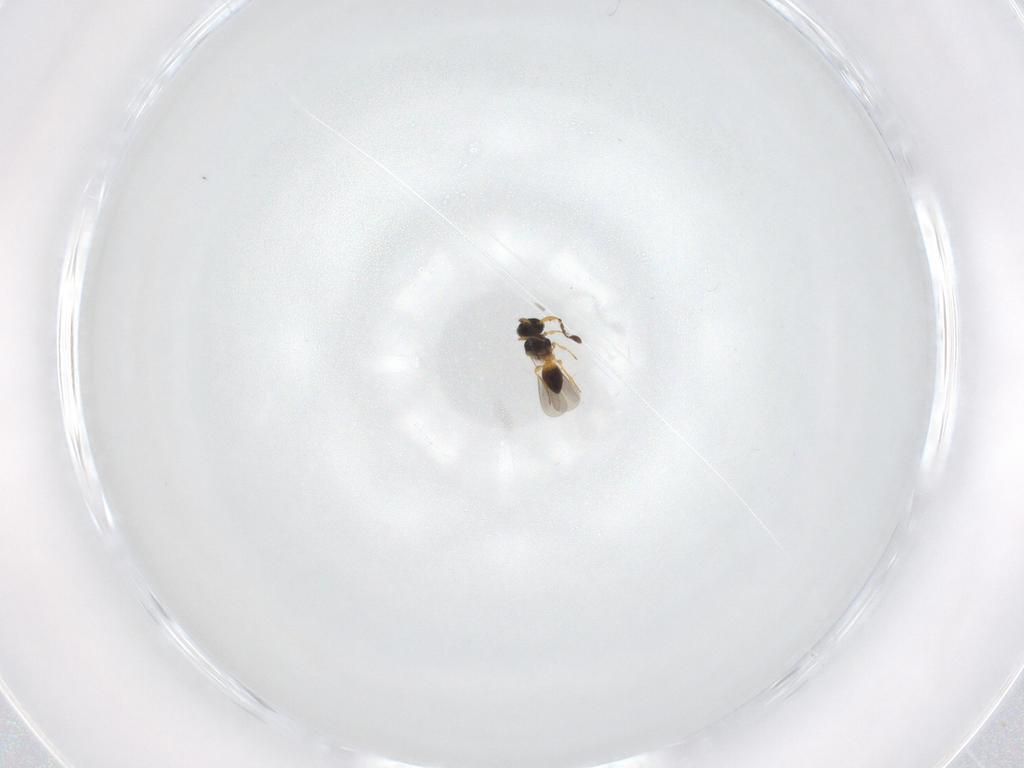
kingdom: Animalia
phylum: Arthropoda
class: Insecta
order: Hymenoptera
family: Platygastridae
